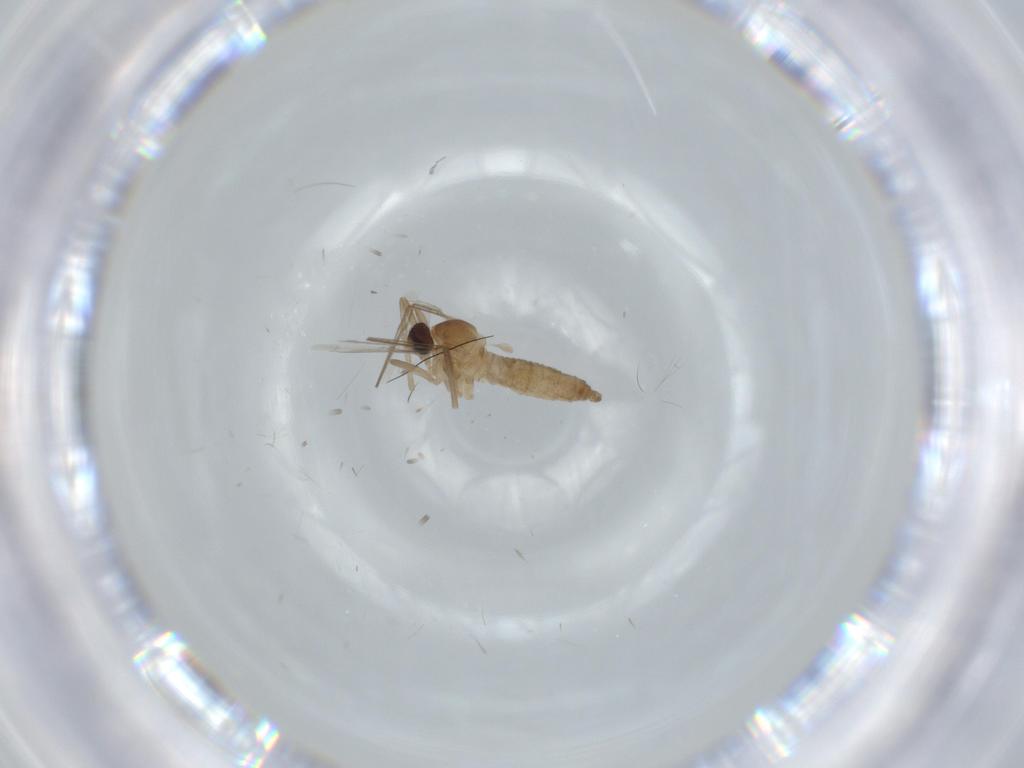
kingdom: Animalia
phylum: Arthropoda
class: Insecta
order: Diptera
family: Cecidomyiidae
